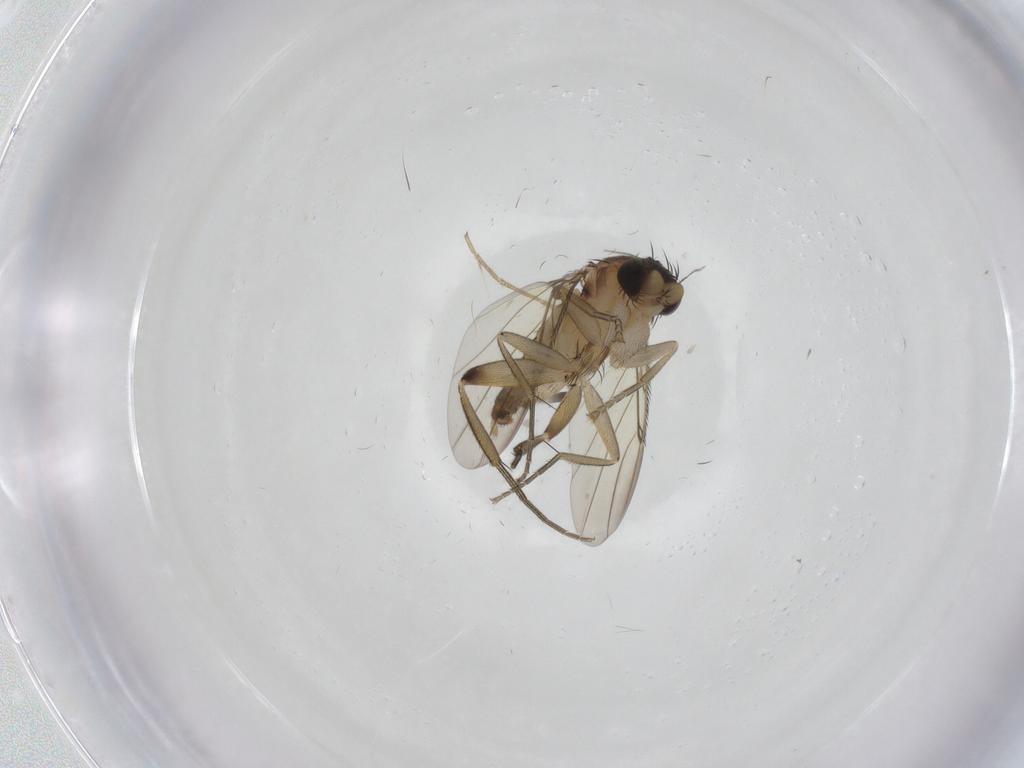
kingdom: Animalia
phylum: Arthropoda
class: Insecta
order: Diptera
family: Phoridae
